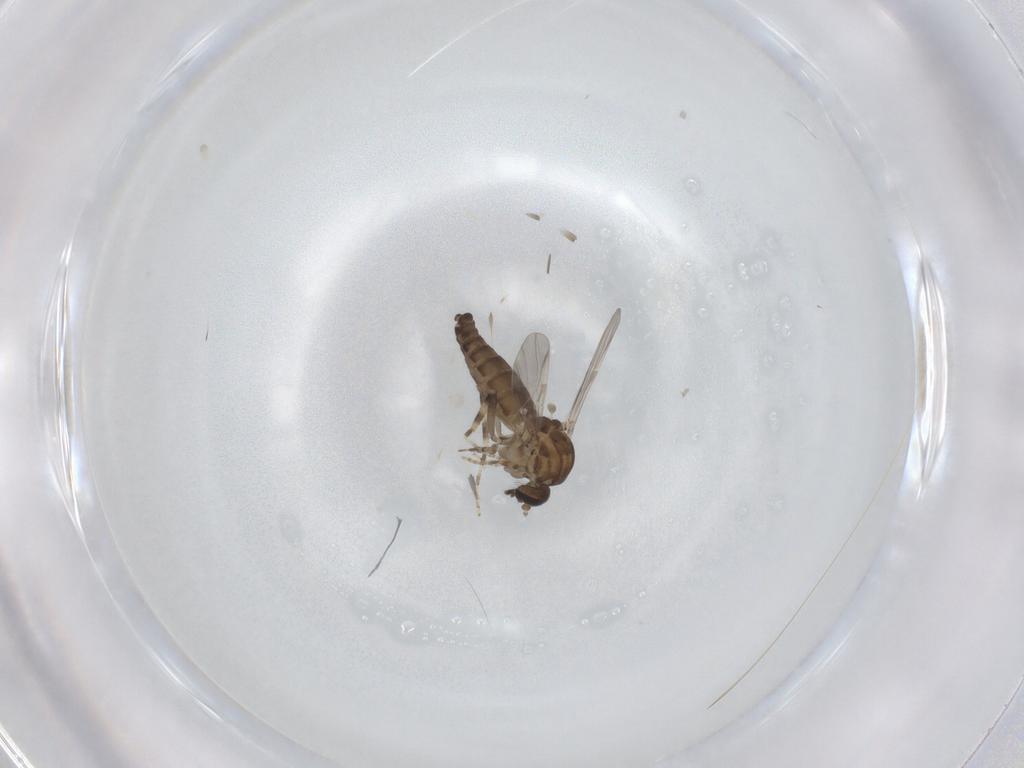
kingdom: Animalia
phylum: Arthropoda
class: Insecta
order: Diptera
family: Ceratopogonidae
